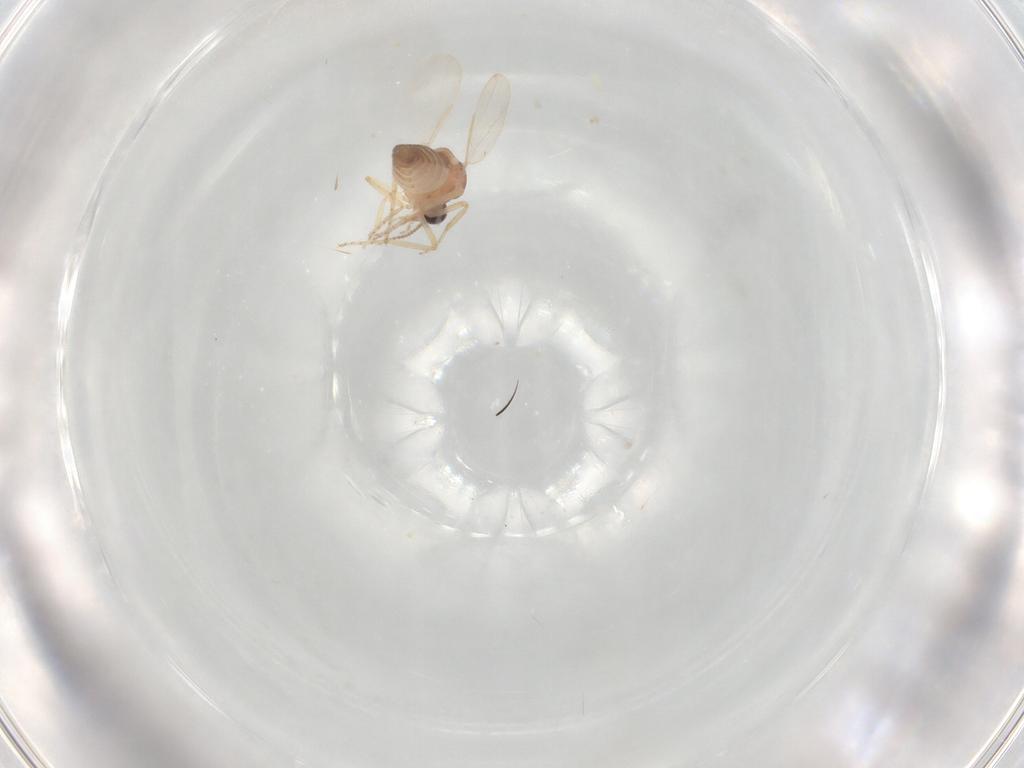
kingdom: Animalia
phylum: Arthropoda
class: Insecta
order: Diptera
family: Ceratopogonidae
